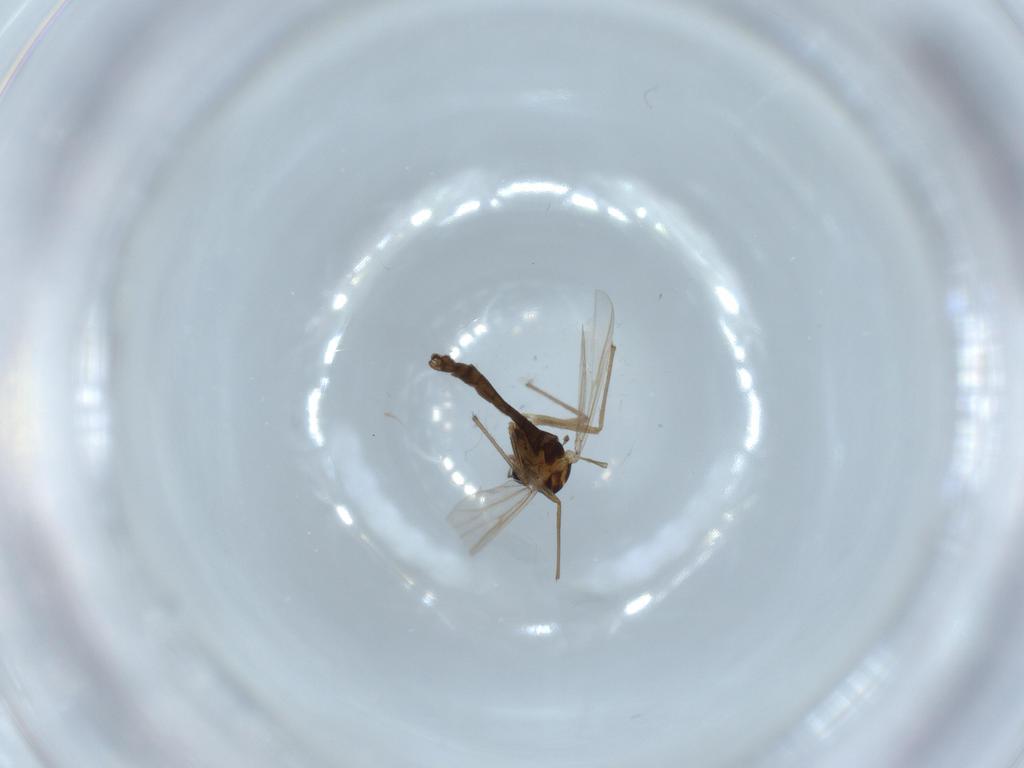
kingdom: Animalia
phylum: Arthropoda
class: Insecta
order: Diptera
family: Chironomidae
